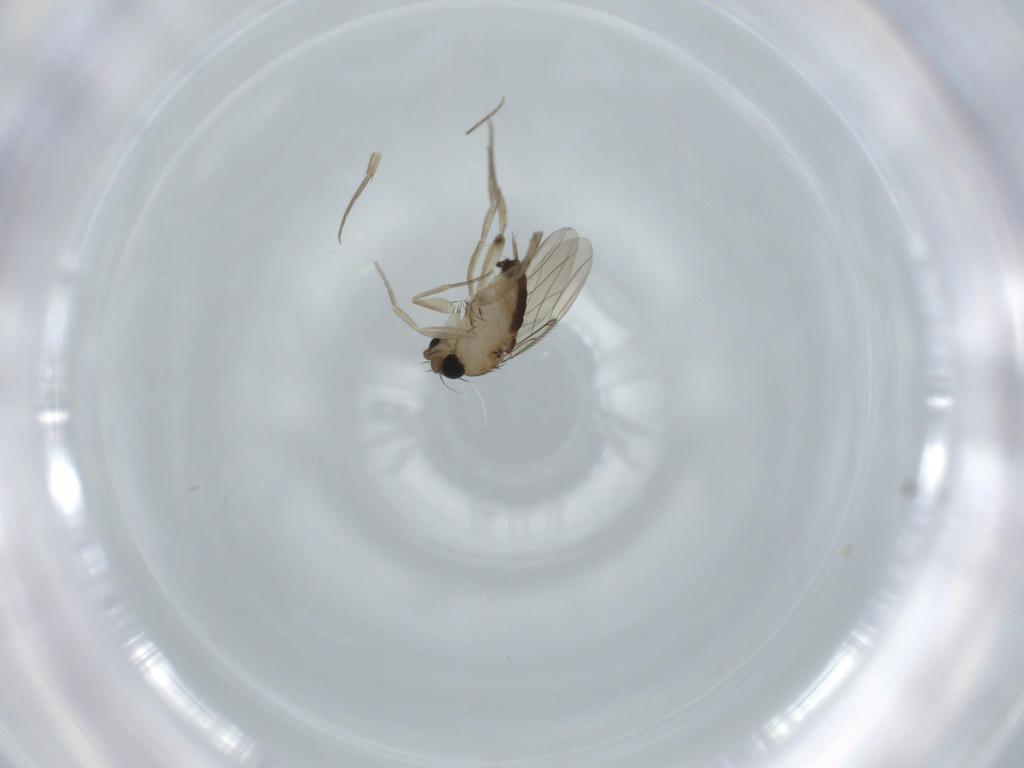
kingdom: Animalia
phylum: Arthropoda
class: Insecta
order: Diptera
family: Phoridae
